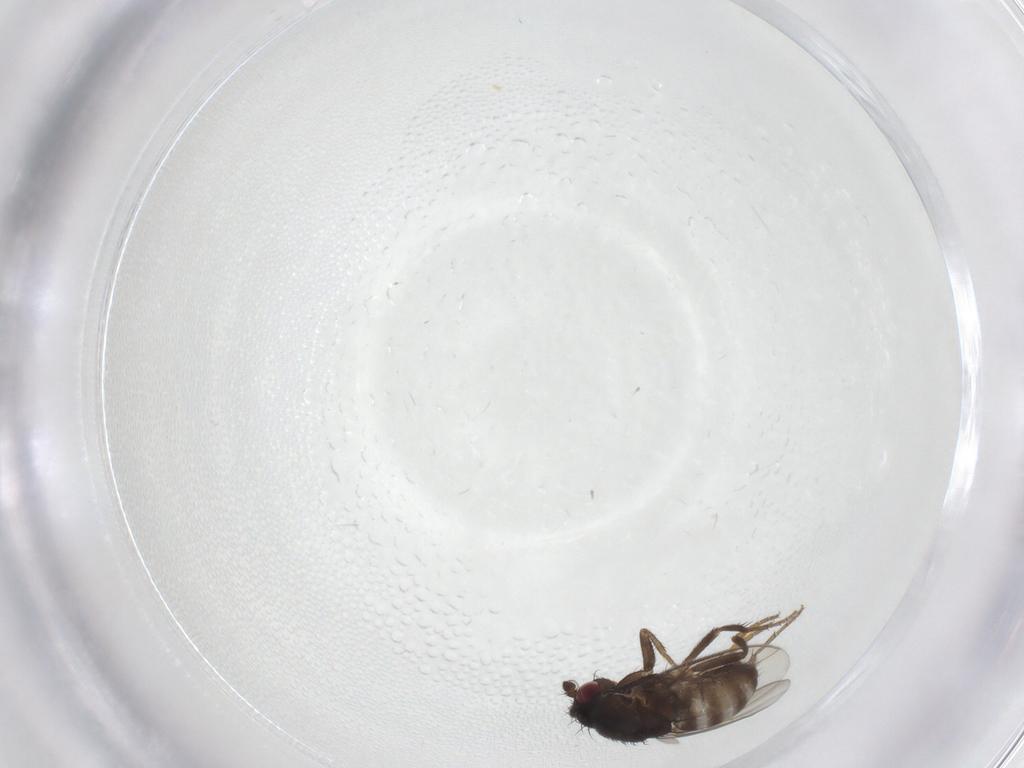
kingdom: Animalia
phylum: Arthropoda
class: Insecta
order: Diptera
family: Sphaeroceridae
